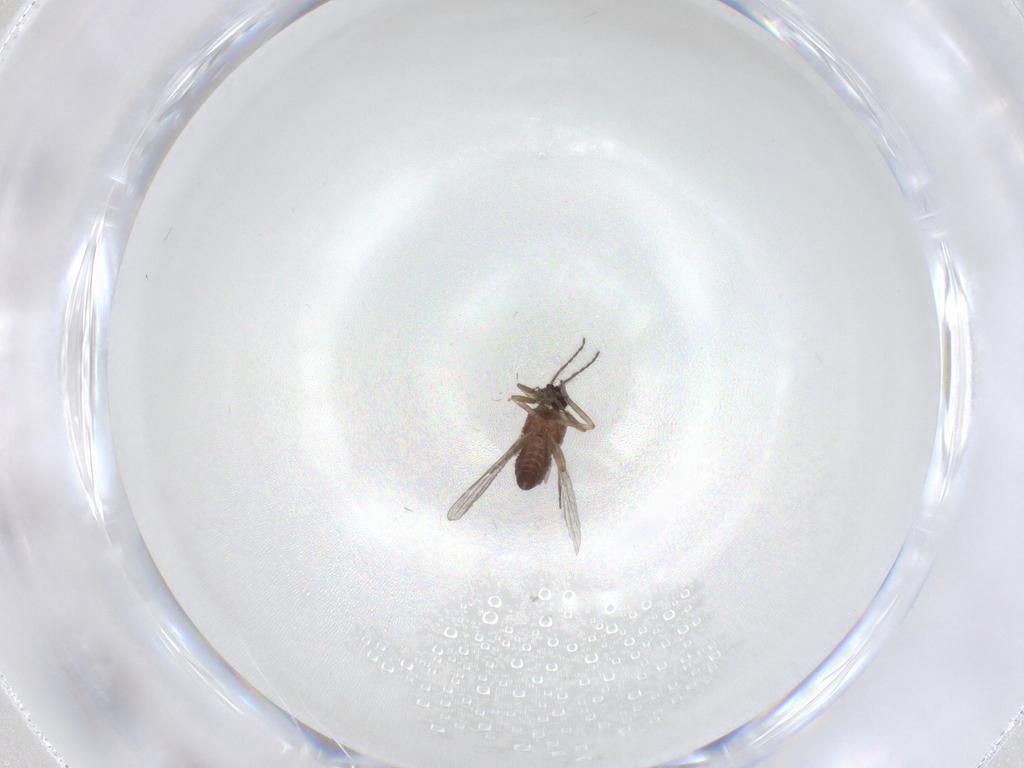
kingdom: Animalia
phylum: Arthropoda
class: Insecta
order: Diptera
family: Ceratopogonidae
